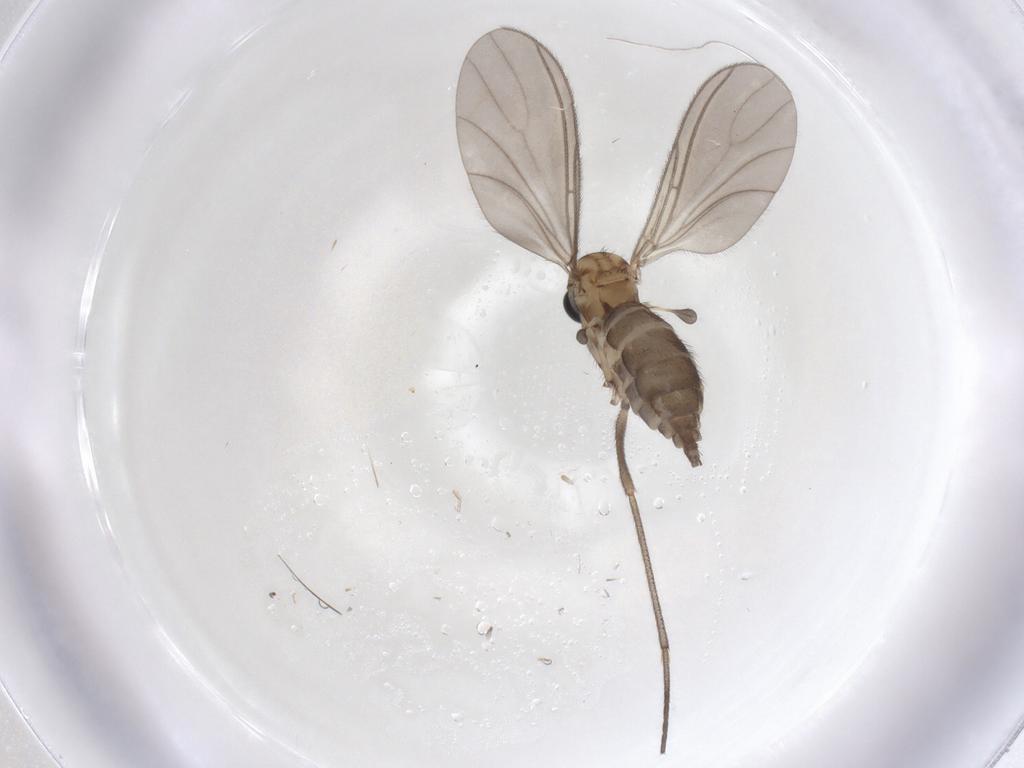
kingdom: Animalia
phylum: Arthropoda
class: Insecta
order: Diptera
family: Sciaridae
